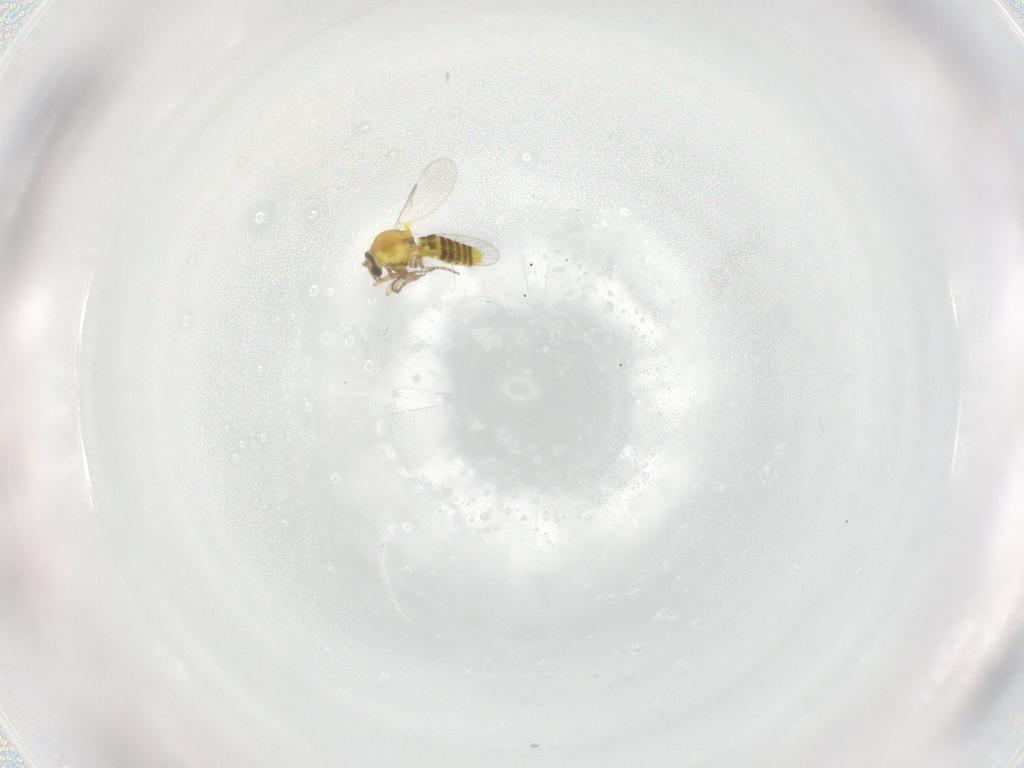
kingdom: Animalia
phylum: Arthropoda
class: Insecta
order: Diptera
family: Ceratopogonidae
